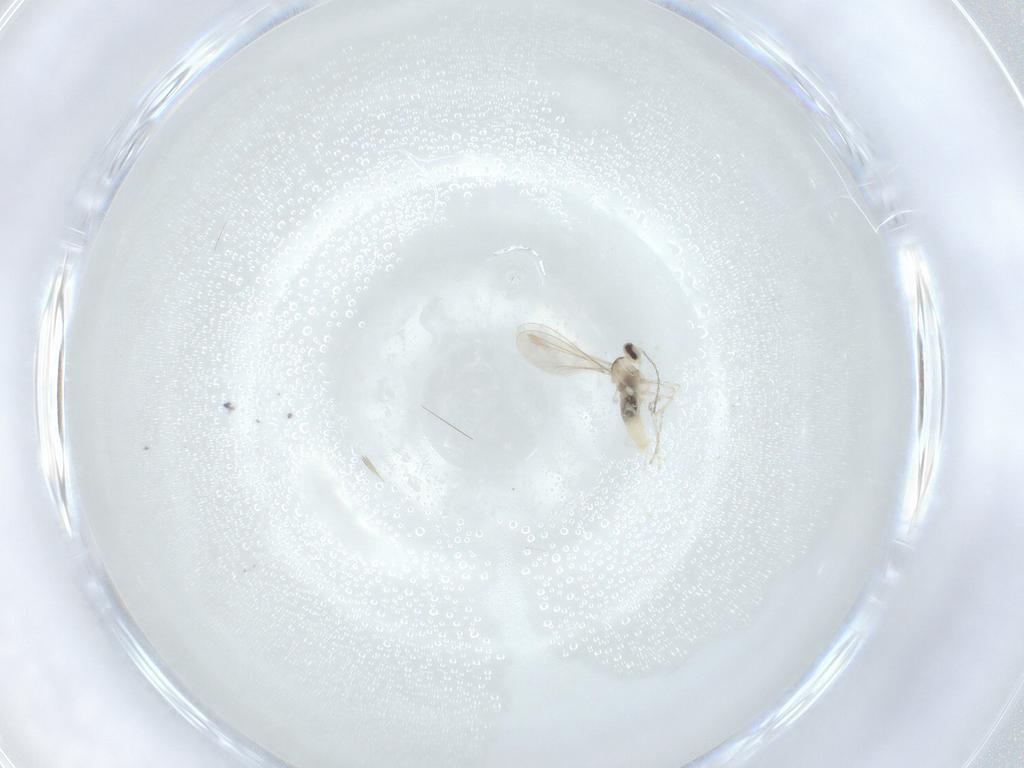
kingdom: Animalia
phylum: Arthropoda
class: Insecta
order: Diptera
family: Cecidomyiidae
